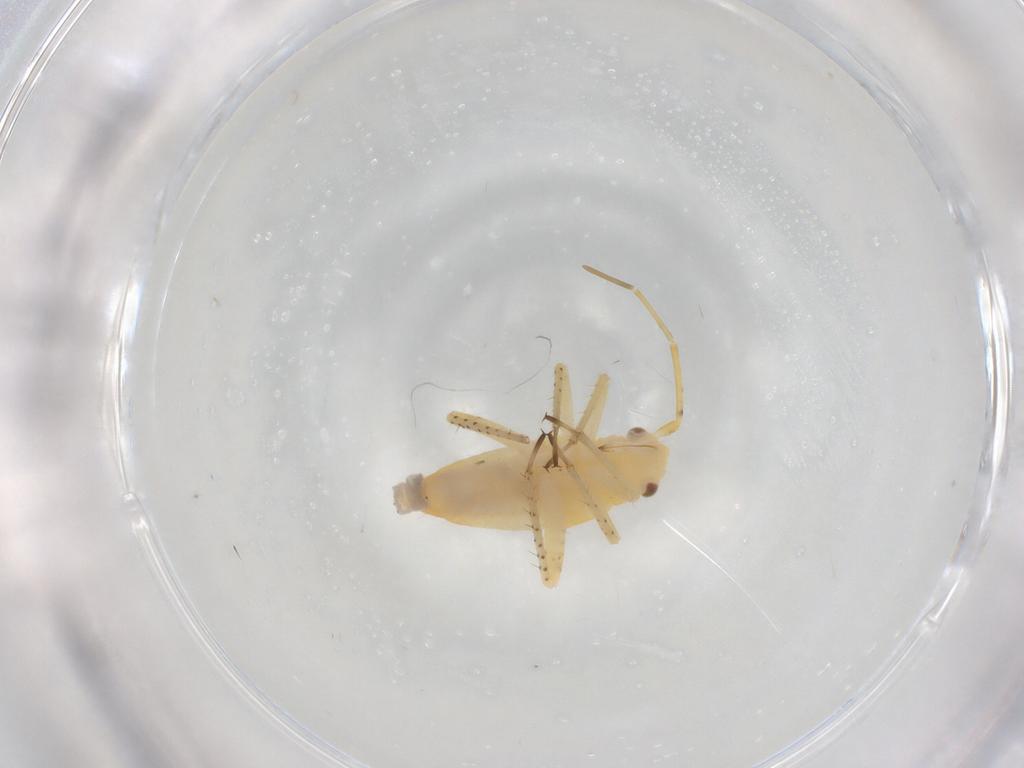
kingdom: Animalia
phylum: Arthropoda
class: Insecta
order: Hemiptera
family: Miridae
